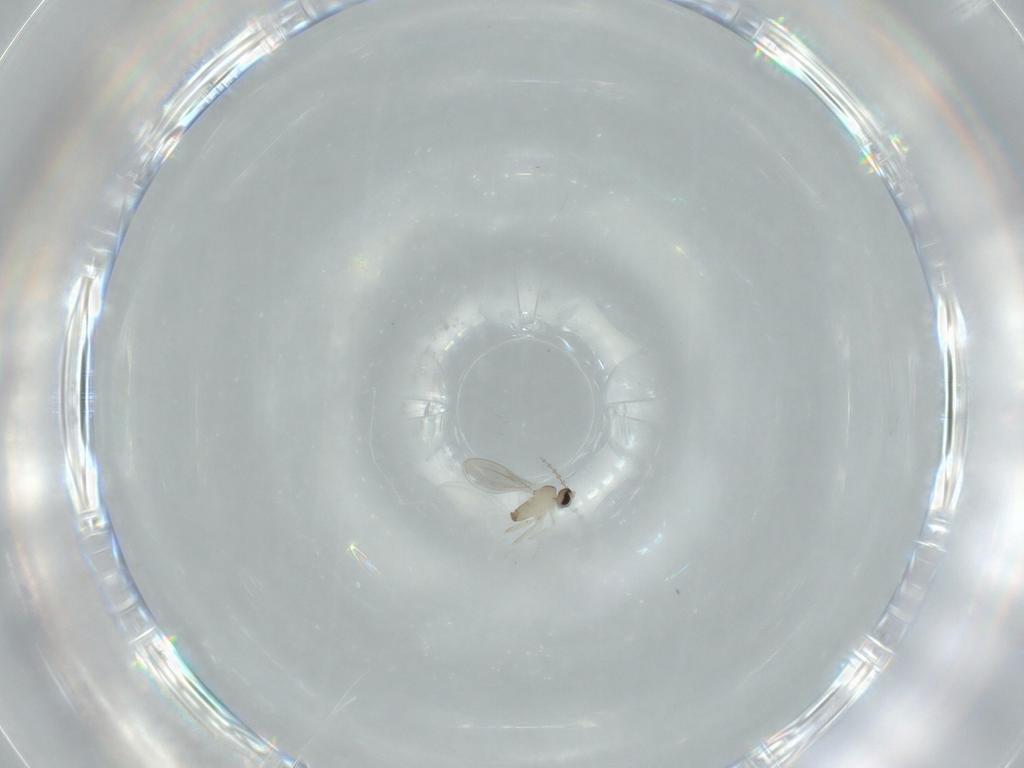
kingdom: Animalia
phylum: Arthropoda
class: Insecta
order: Diptera
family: Cecidomyiidae
